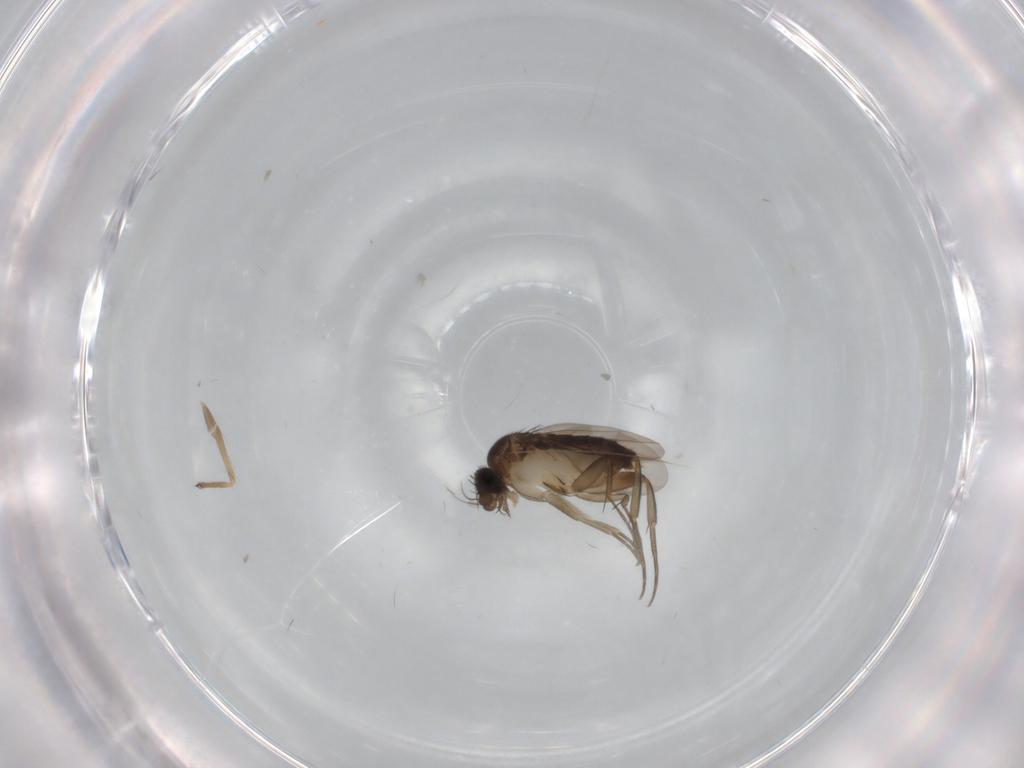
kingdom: Animalia
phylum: Arthropoda
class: Insecta
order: Diptera
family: Phoridae
